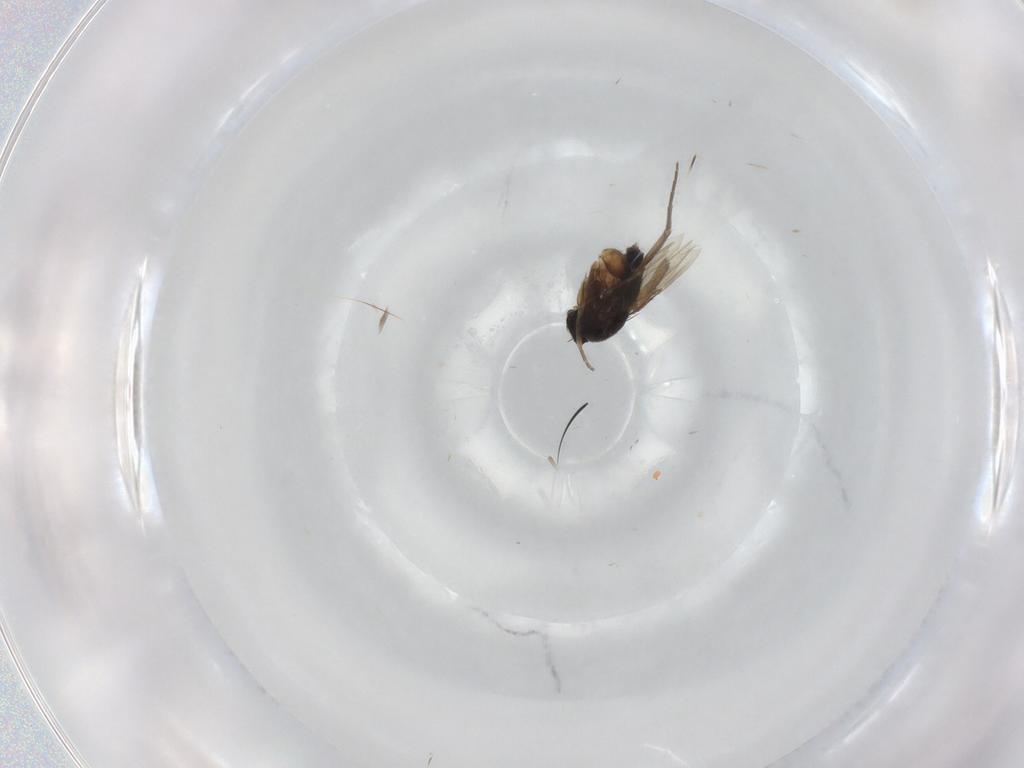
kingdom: Animalia
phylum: Arthropoda
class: Insecta
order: Diptera
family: Phoridae
